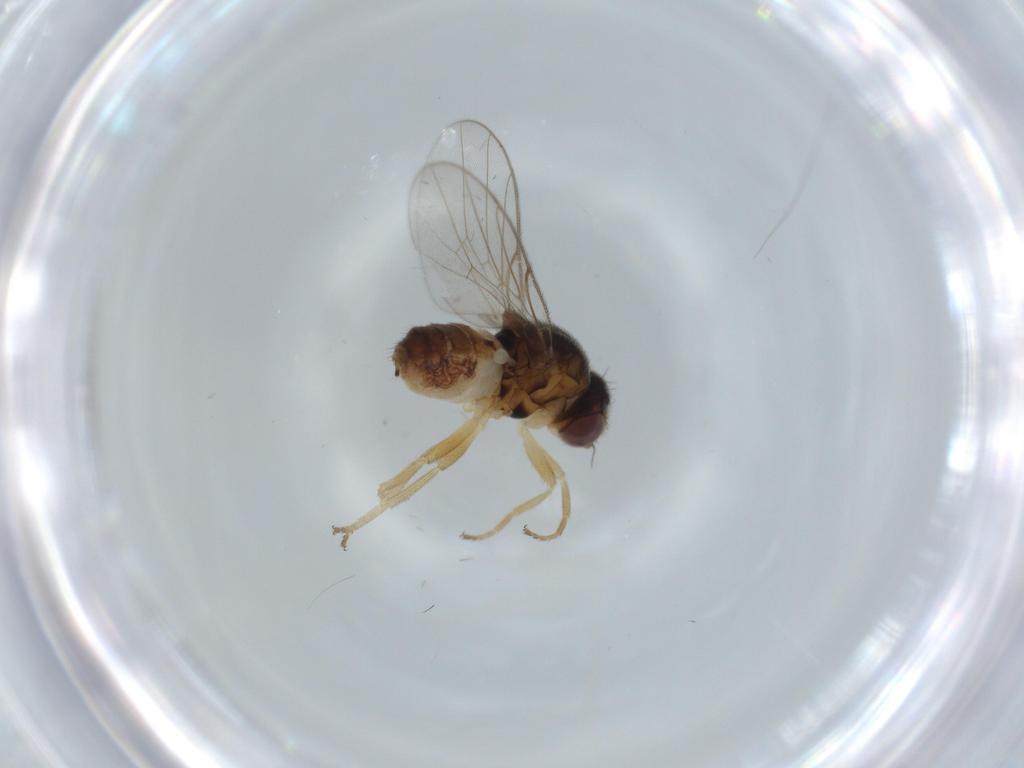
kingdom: Animalia
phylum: Arthropoda
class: Insecta
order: Diptera
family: Chloropidae
